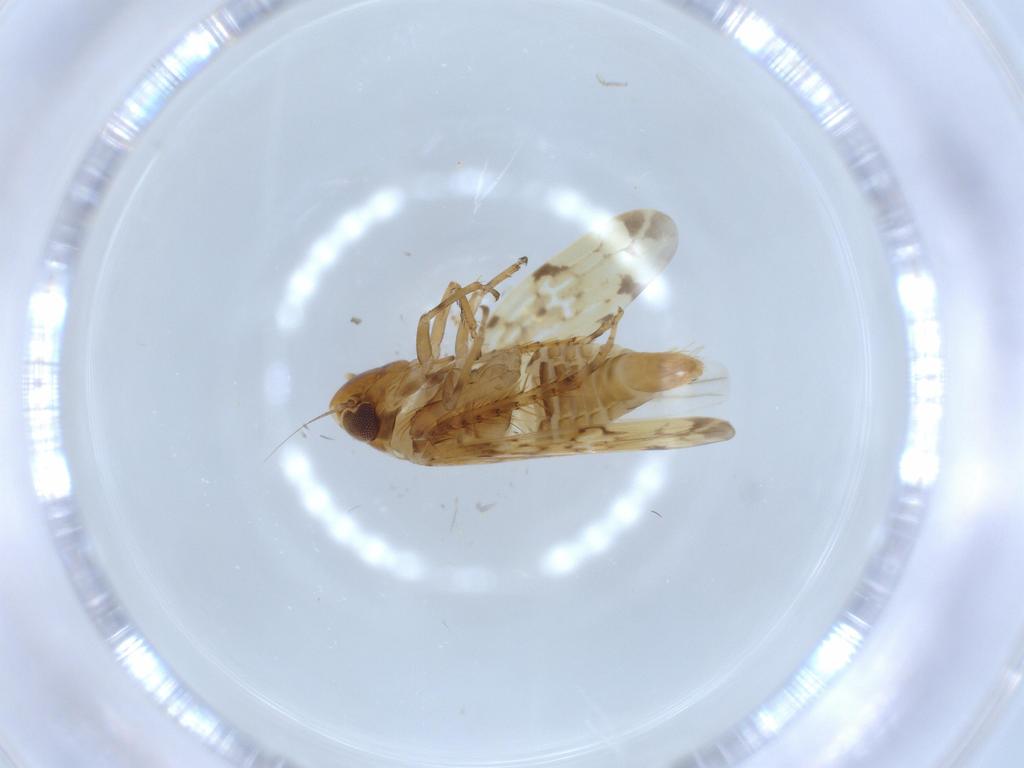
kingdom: Animalia
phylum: Arthropoda
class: Insecta
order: Hemiptera
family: Cicadellidae
